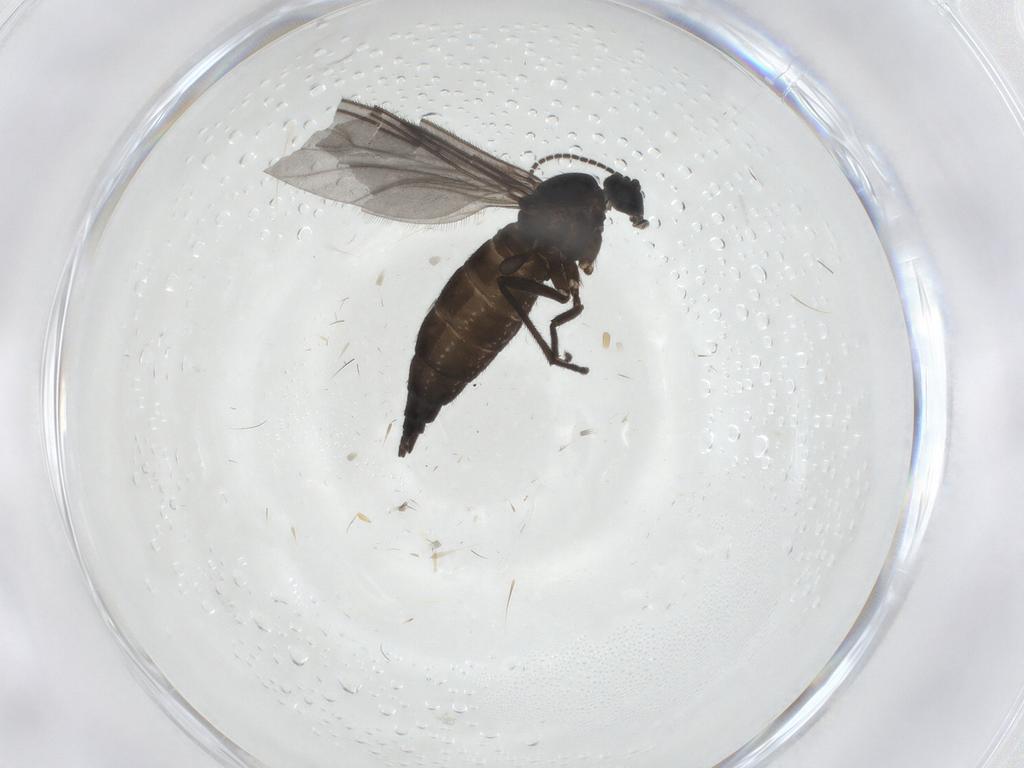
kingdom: Animalia
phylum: Arthropoda
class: Insecta
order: Diptera
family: Sciaridae
